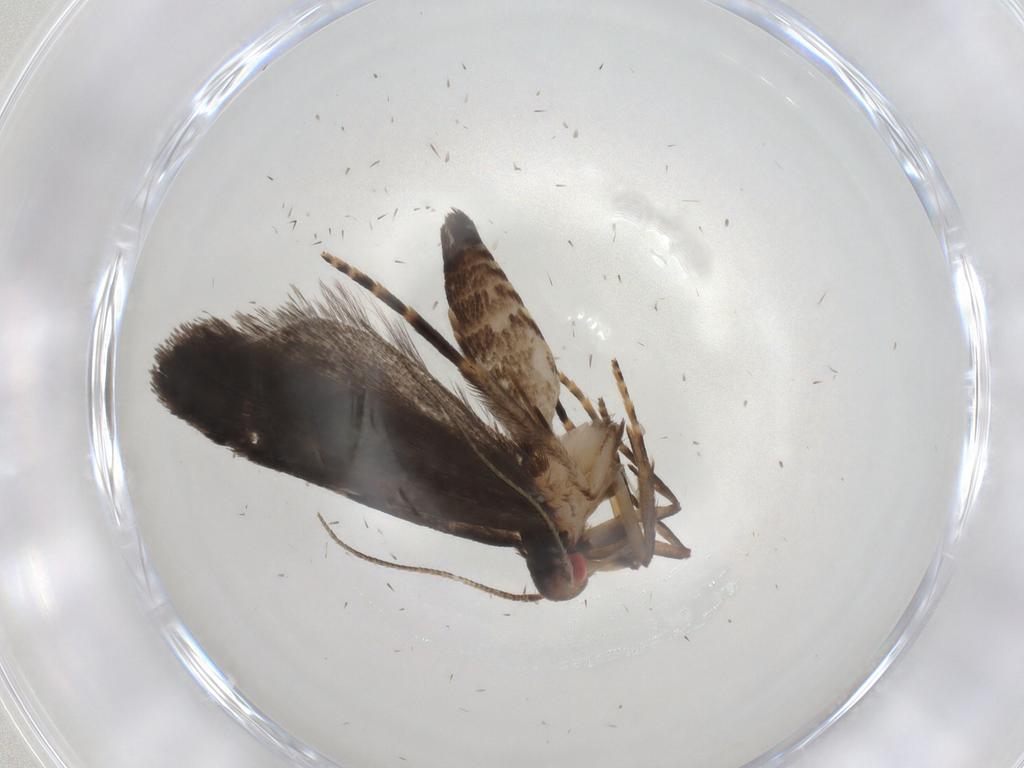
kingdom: Animalia
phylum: Arthropoda
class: Insecta
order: Lepidoptera
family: Gelechiidae
